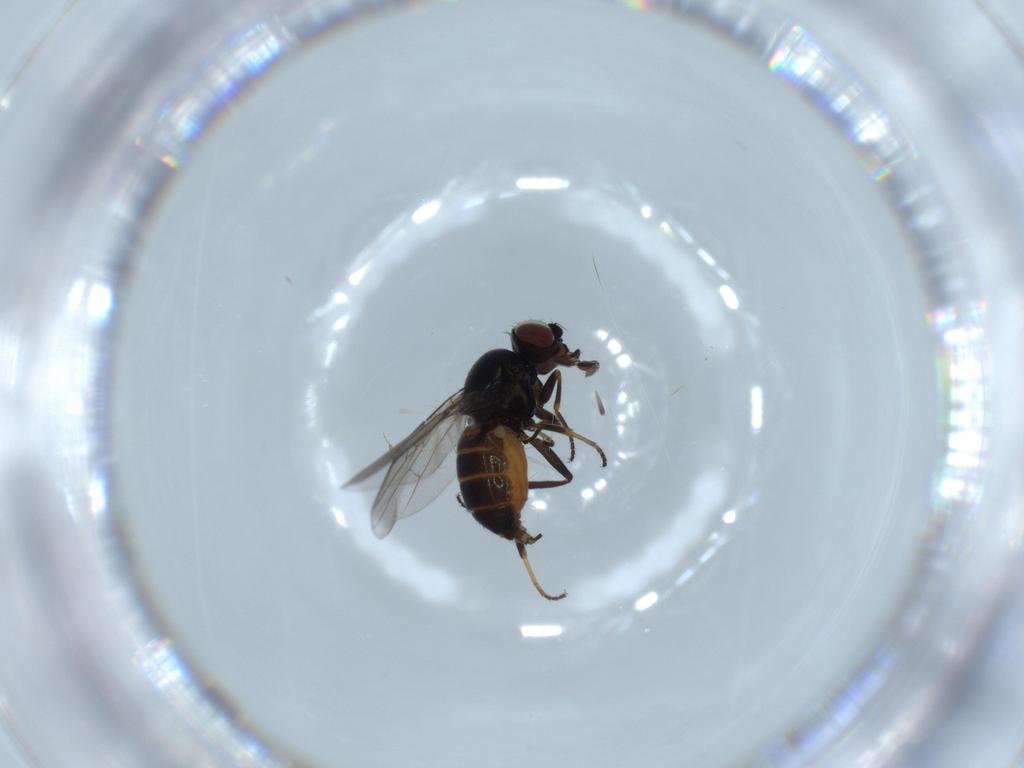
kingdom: Animalia
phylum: Arthropoda
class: Insecta
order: Diptera
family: Chloropidae
